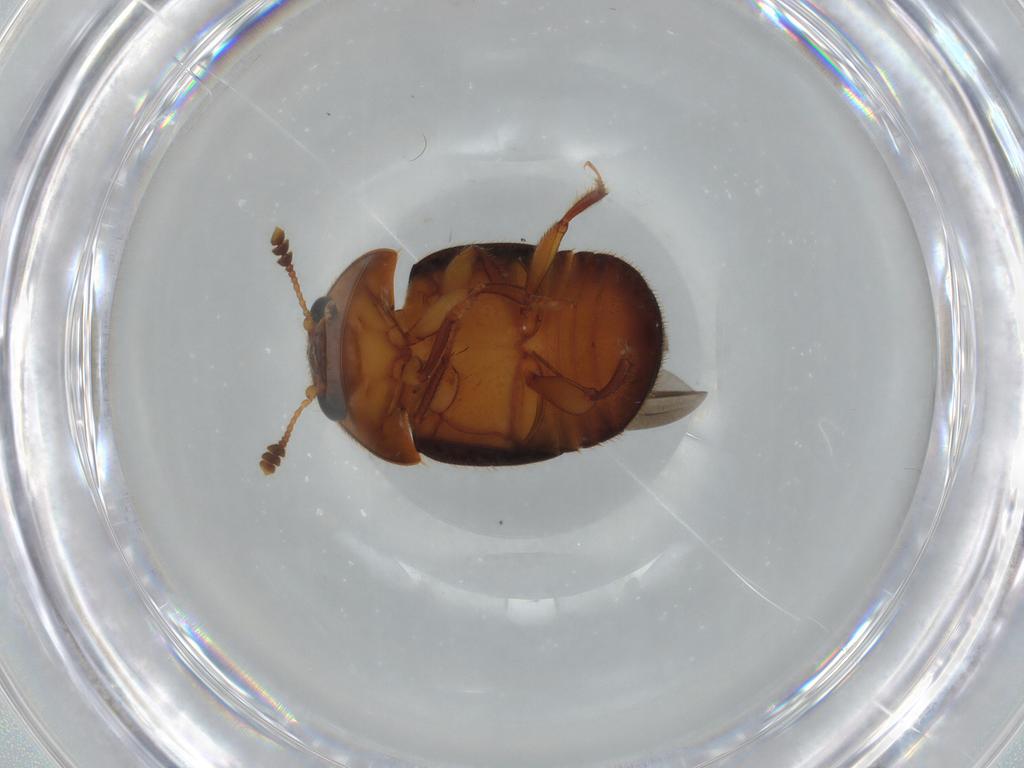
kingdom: Animalia
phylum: Arthropoda
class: Insecta
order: Coleoptera
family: Nitidulidae
